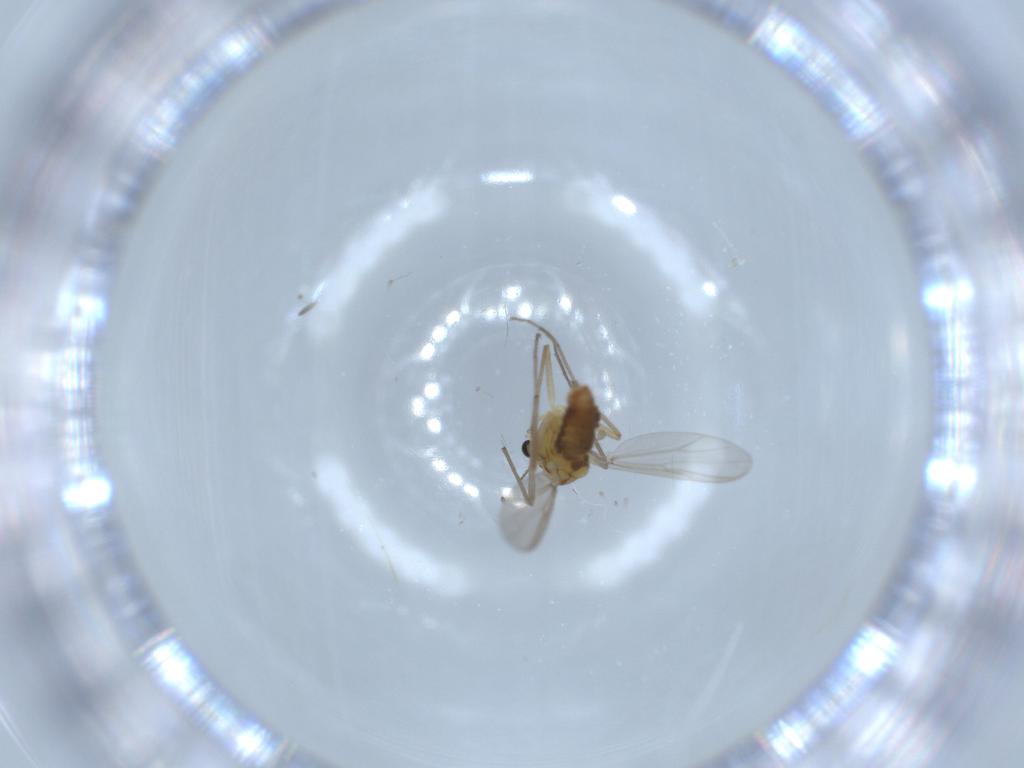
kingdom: Animalia
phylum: Arthropoda
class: Insecta
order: Diptera
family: Chironomidae
